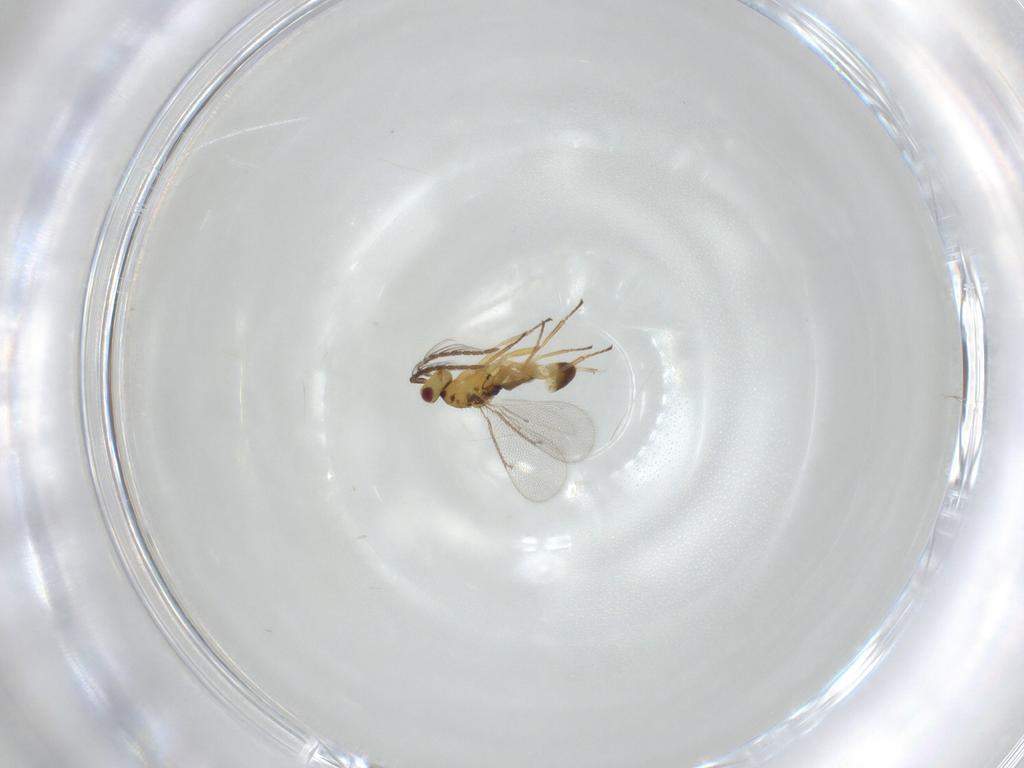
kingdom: Animalia
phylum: Arthropoda
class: Insecta
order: Hymenoptera
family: Eulophidae
